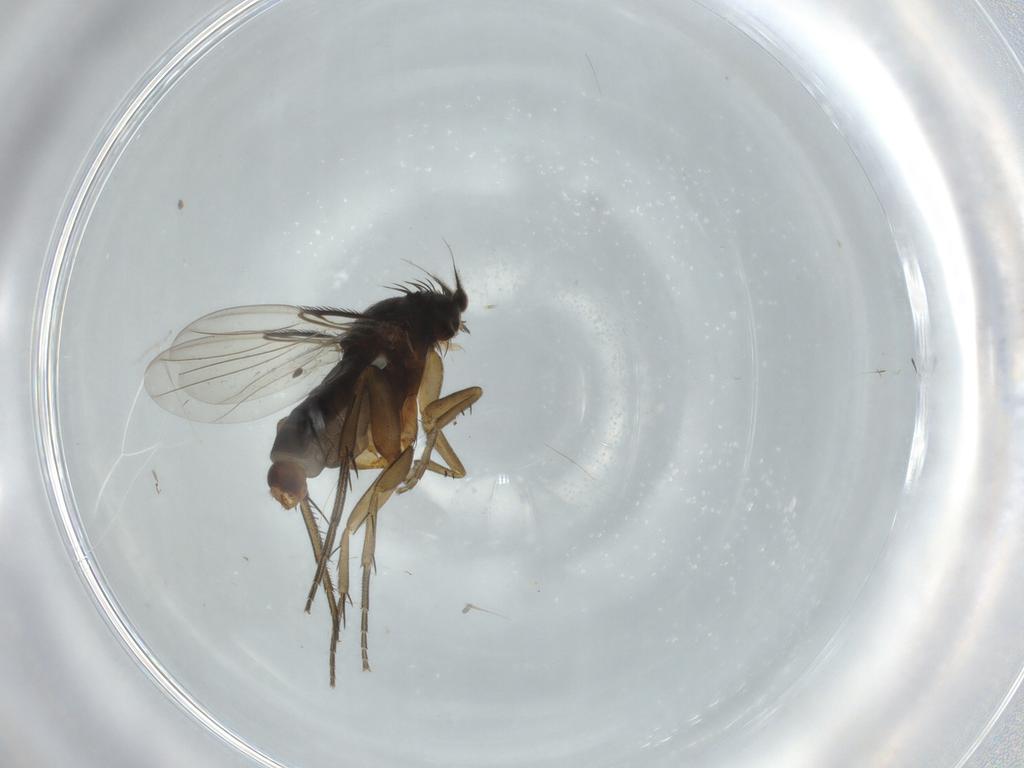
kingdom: Animalia
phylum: Arthropoda
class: Insecta
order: Diptera
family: Phoridae
